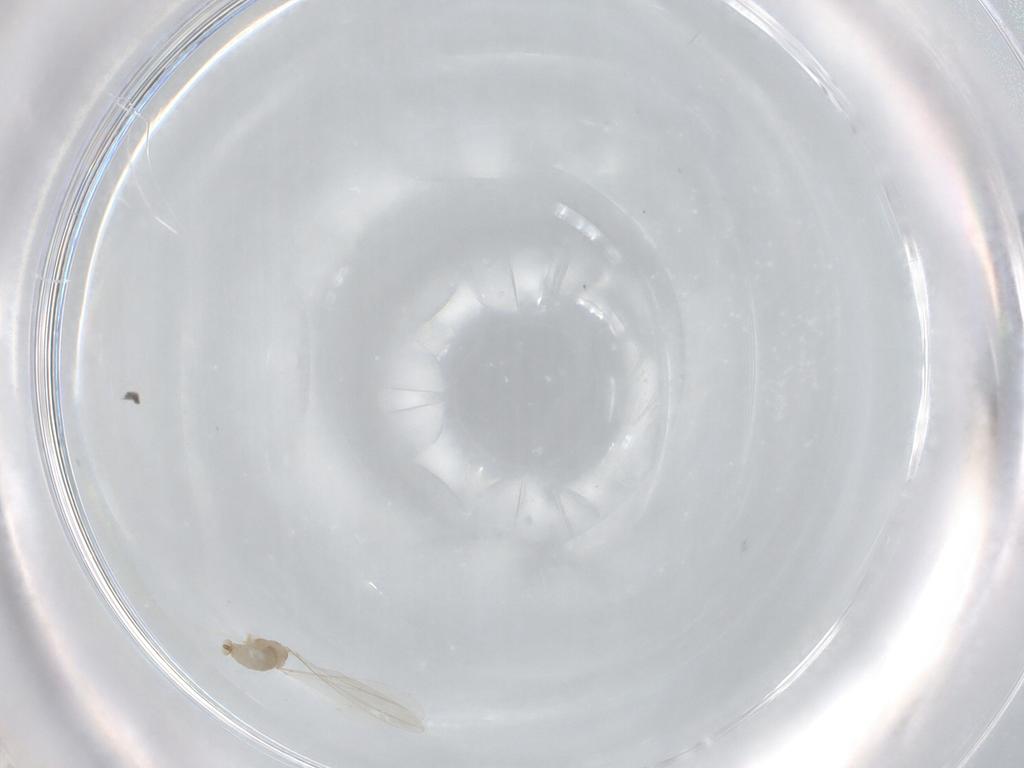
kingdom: Animalia
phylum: Arthropoda
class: Insecta
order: Diptera
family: Cecidomyiidae
